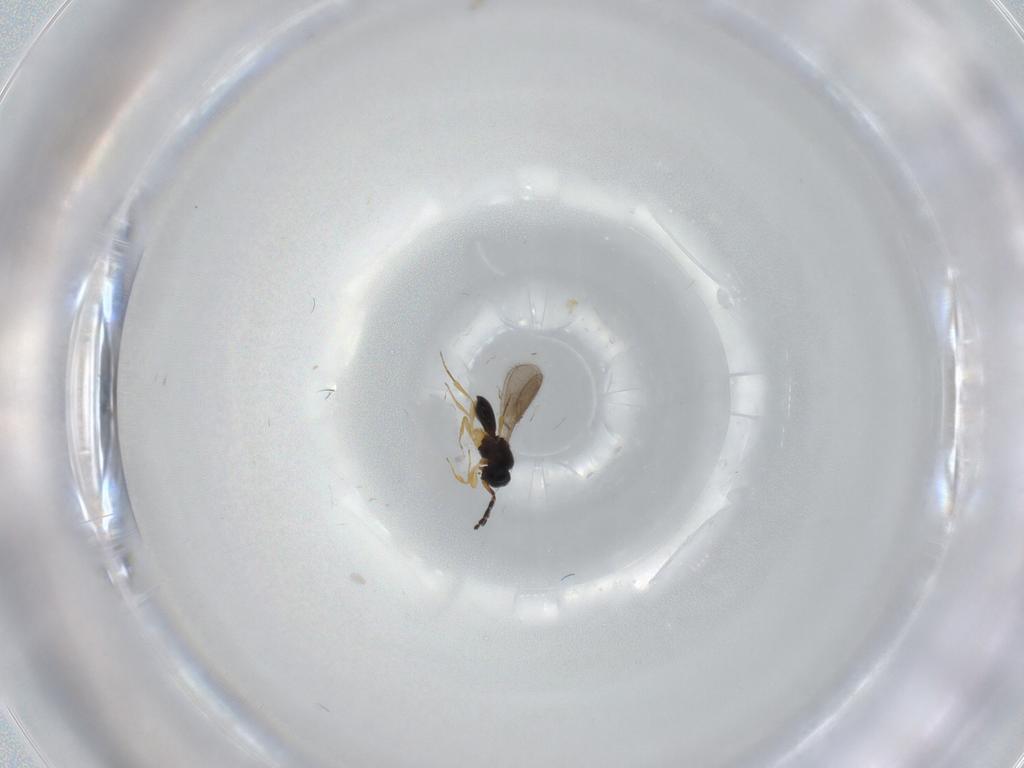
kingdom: Animalia
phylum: Arthropoda
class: Insecta
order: Hymenoptera
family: Scelionidae
